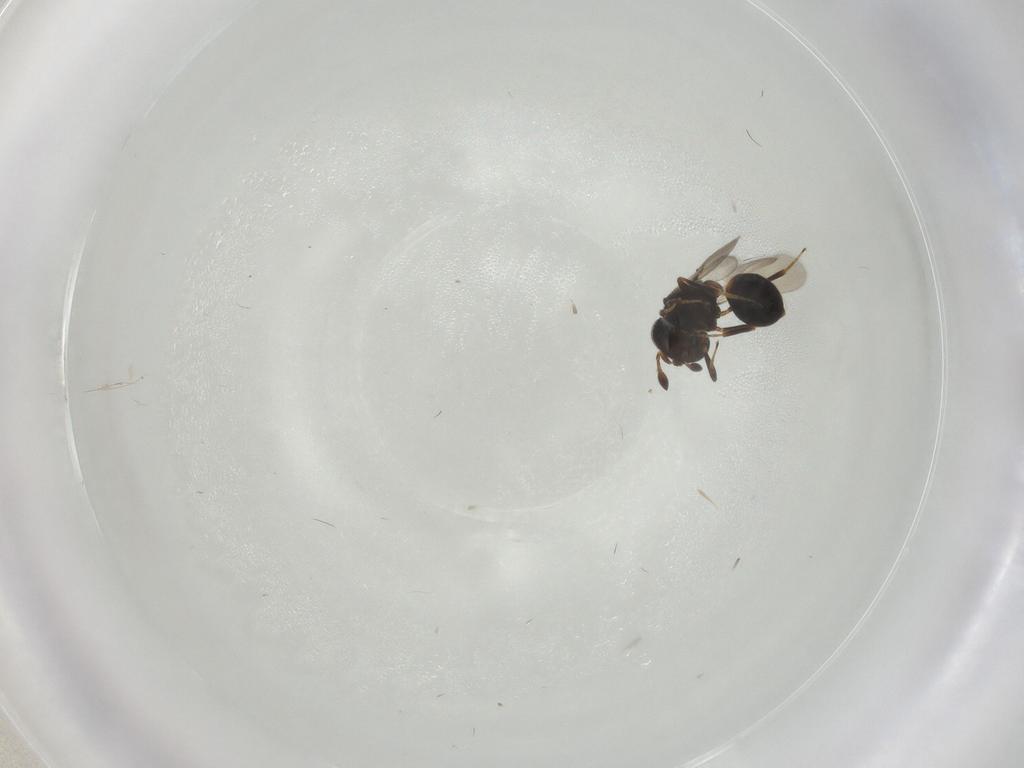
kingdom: Animalia
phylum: Arthropoda
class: Insecta
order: Hymenoptera
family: Scelionidae
